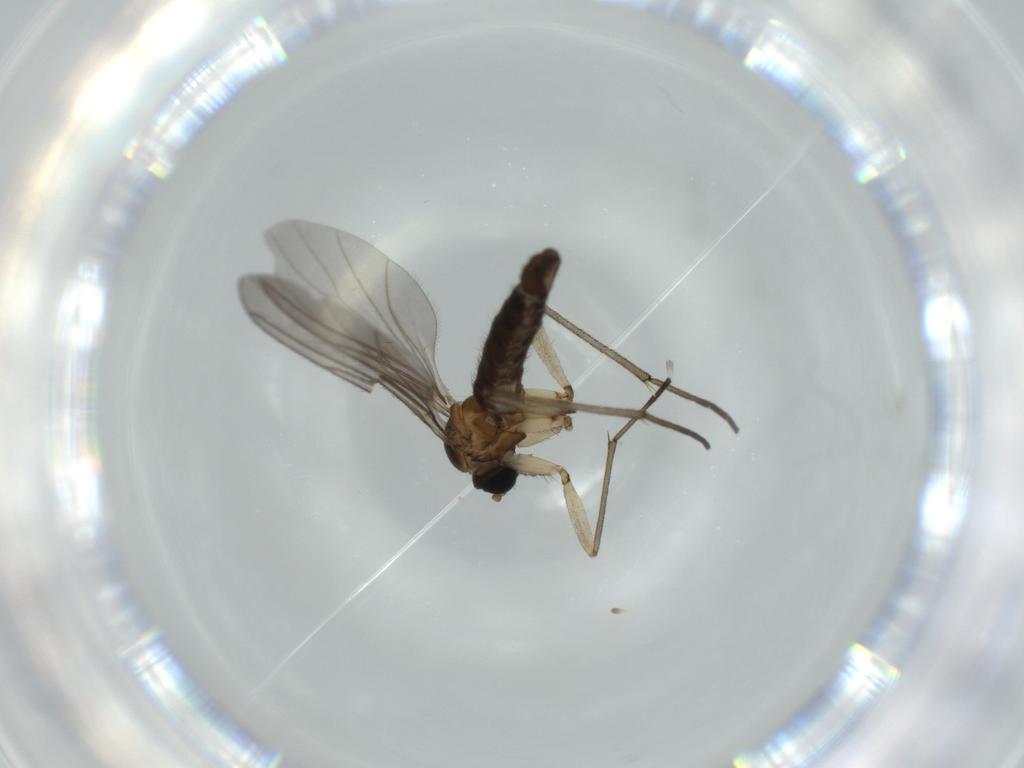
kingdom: Animalia
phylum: Arthropoda
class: Insecta
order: Diptera
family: Sciaridae
